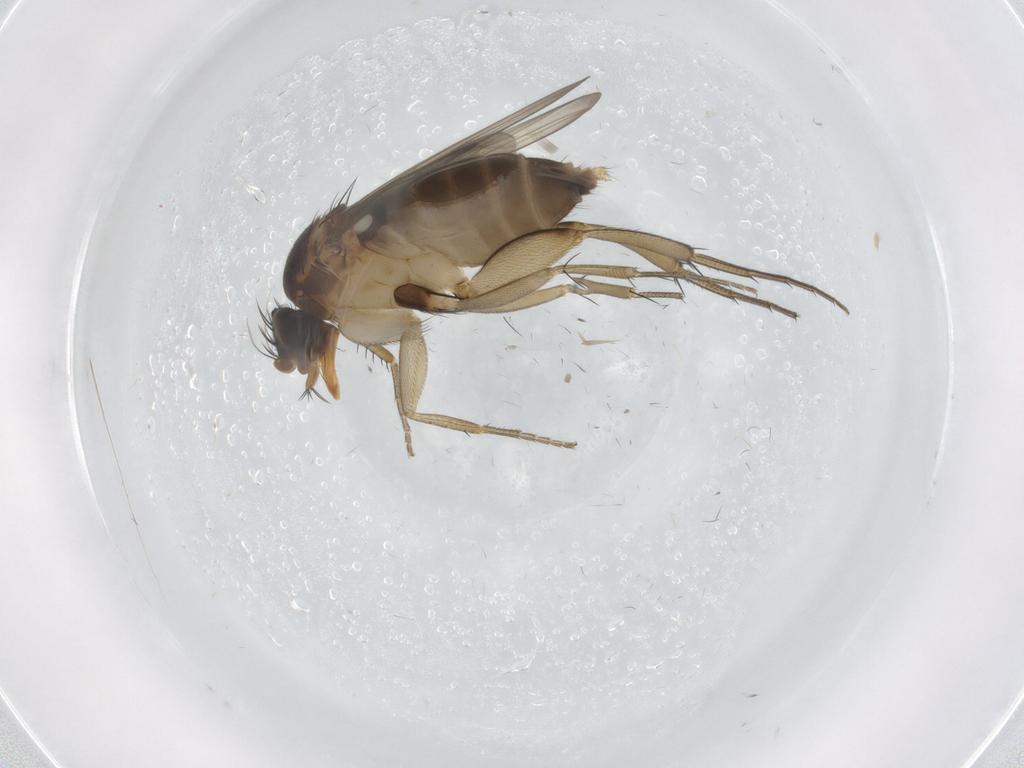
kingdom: Animalia
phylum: Arthropoda
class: Insecta
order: Diptera
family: Phoridae
